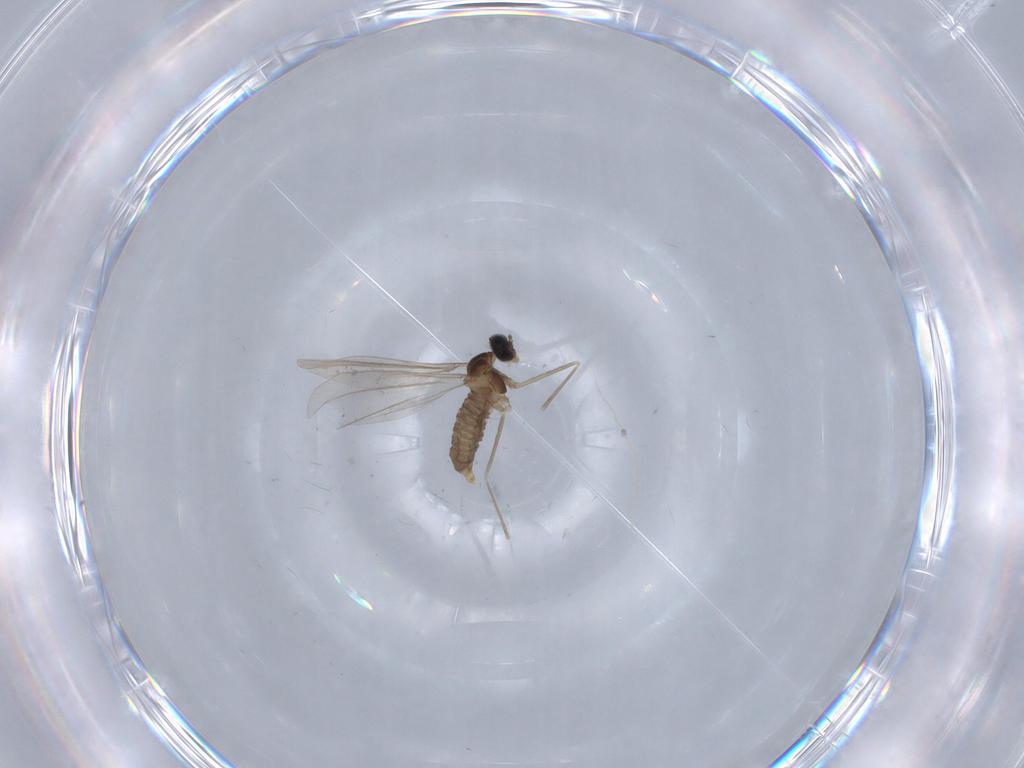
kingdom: Animalia
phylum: Arthropoda
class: Insecta
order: Diptera
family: Cecidomyiidae
